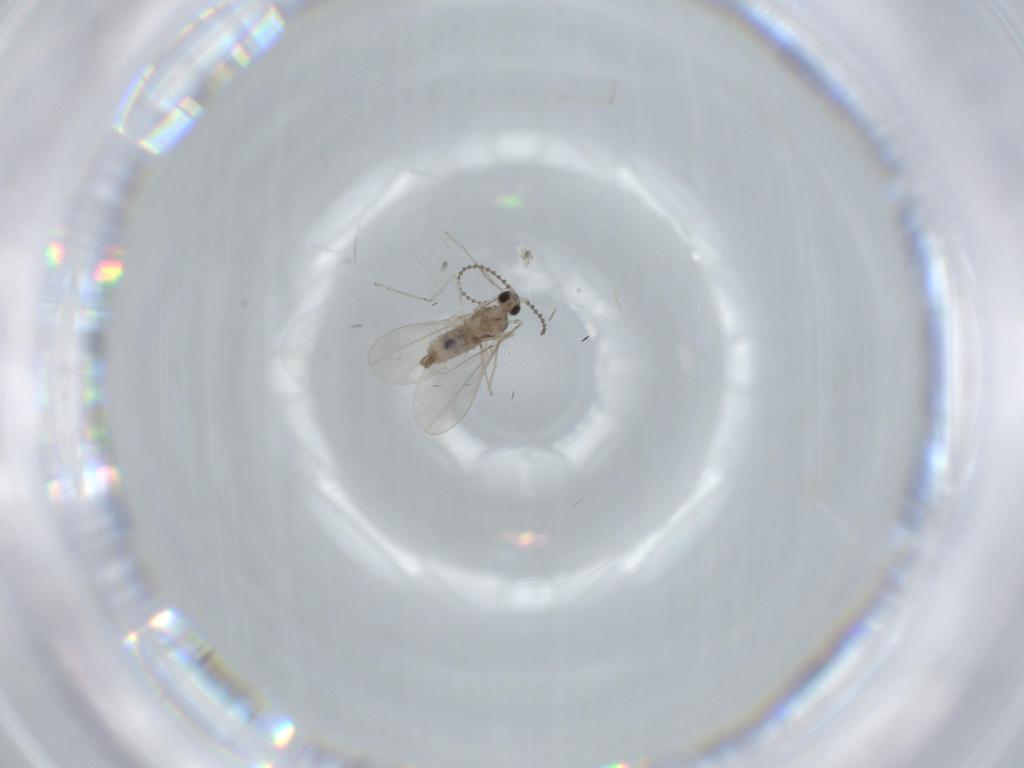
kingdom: Animalia
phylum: Arthropoda
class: Insecta
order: Diptera
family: Cecidomyiidae
